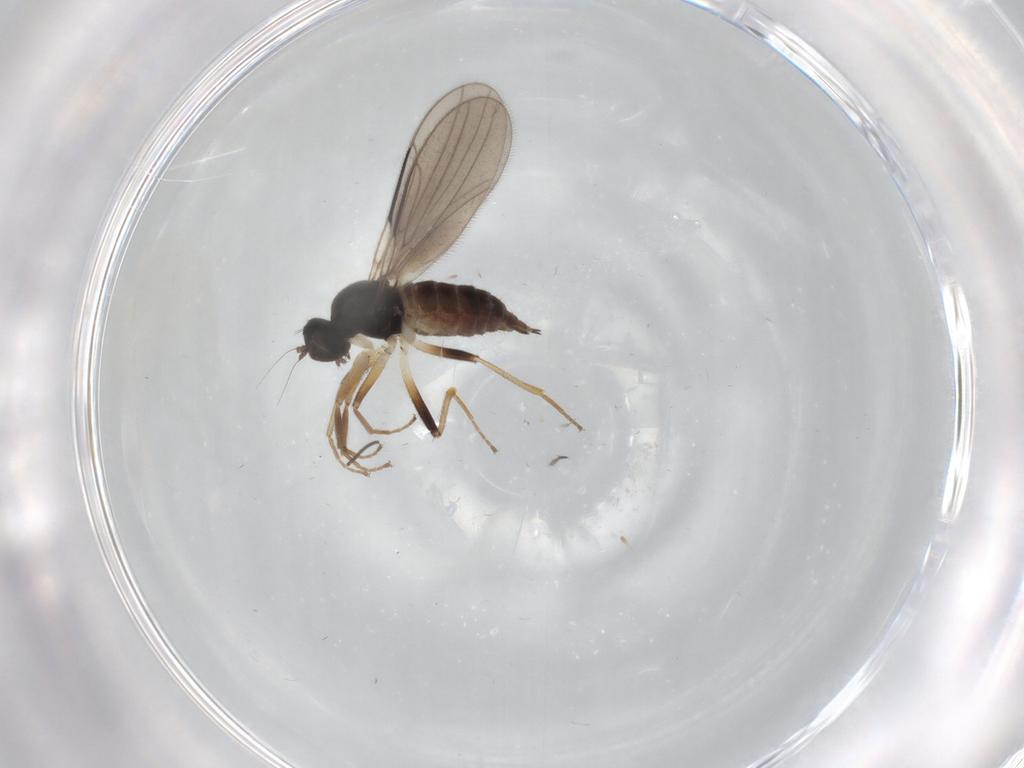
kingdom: Animalia
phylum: Arthropoda
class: Insecta
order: Diptera
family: Hybotidae
